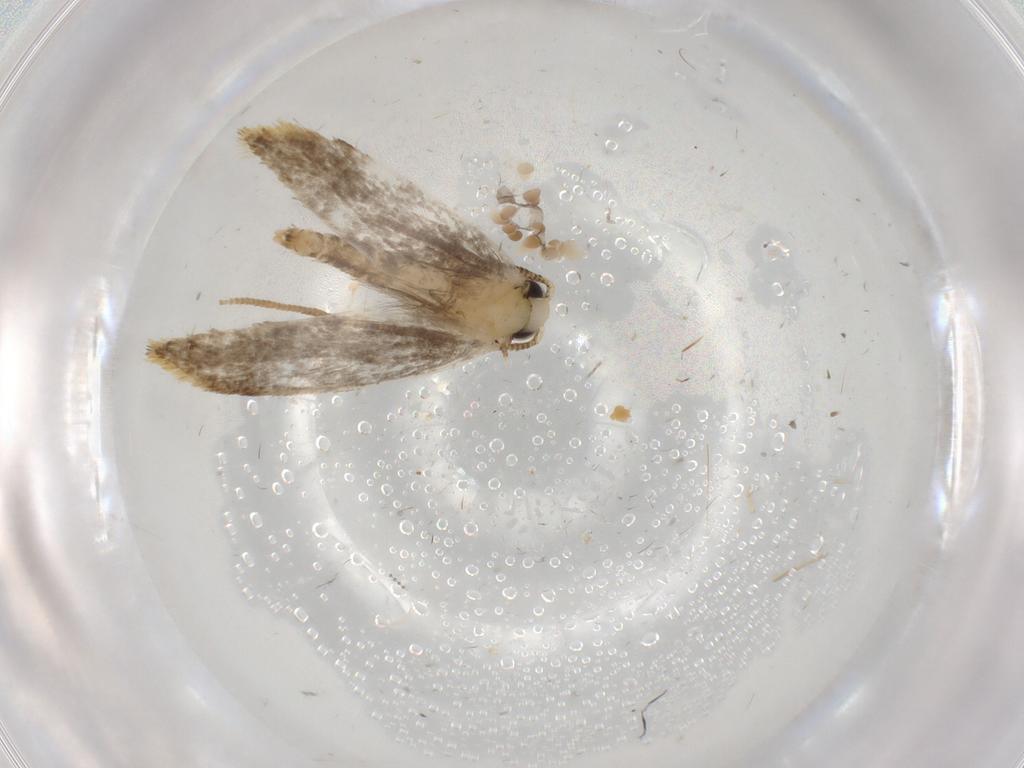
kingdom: Animalia
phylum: Arthropoda
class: Insecta
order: Lepidoptera
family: Tineidae
